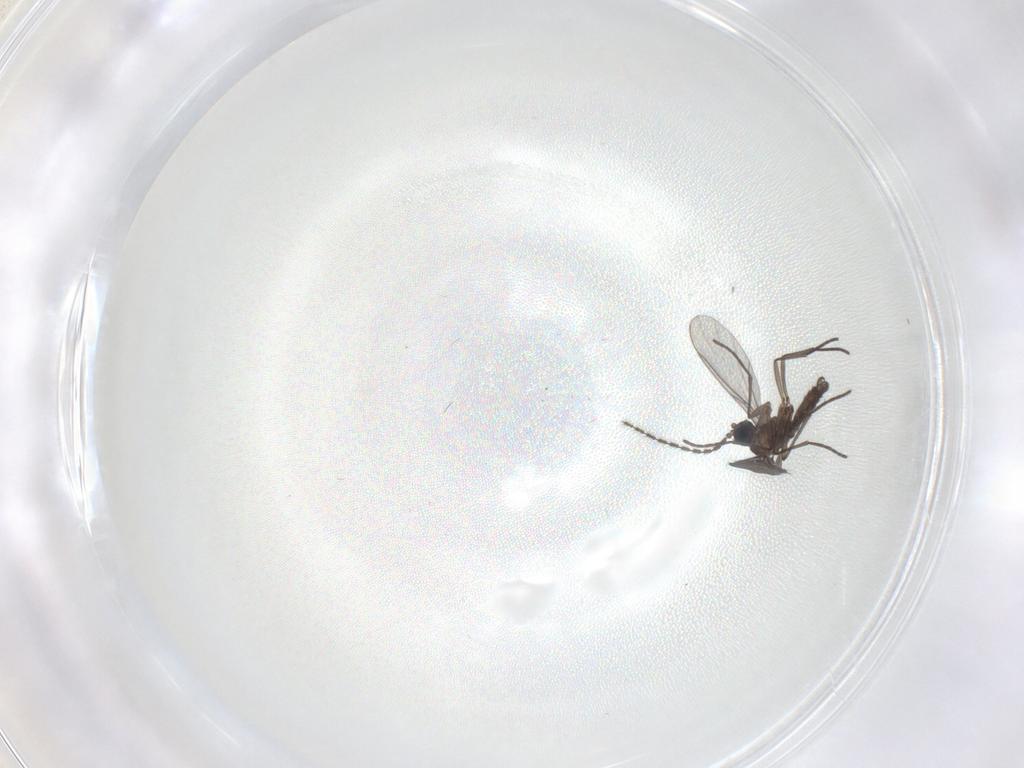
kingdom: Animalia
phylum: Arthropoda
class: Insecta
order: Diptera
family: Sciaridae
